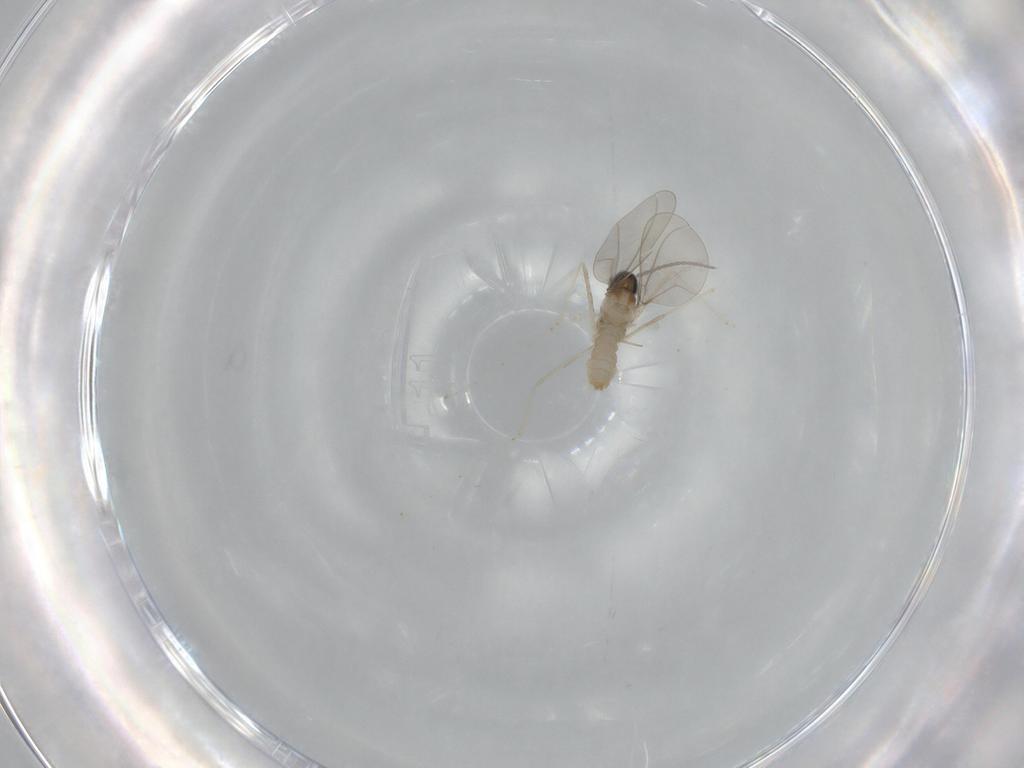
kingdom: Animalia
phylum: Arthropoda
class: Insecta
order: Diptera
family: Cecidomyiidae
